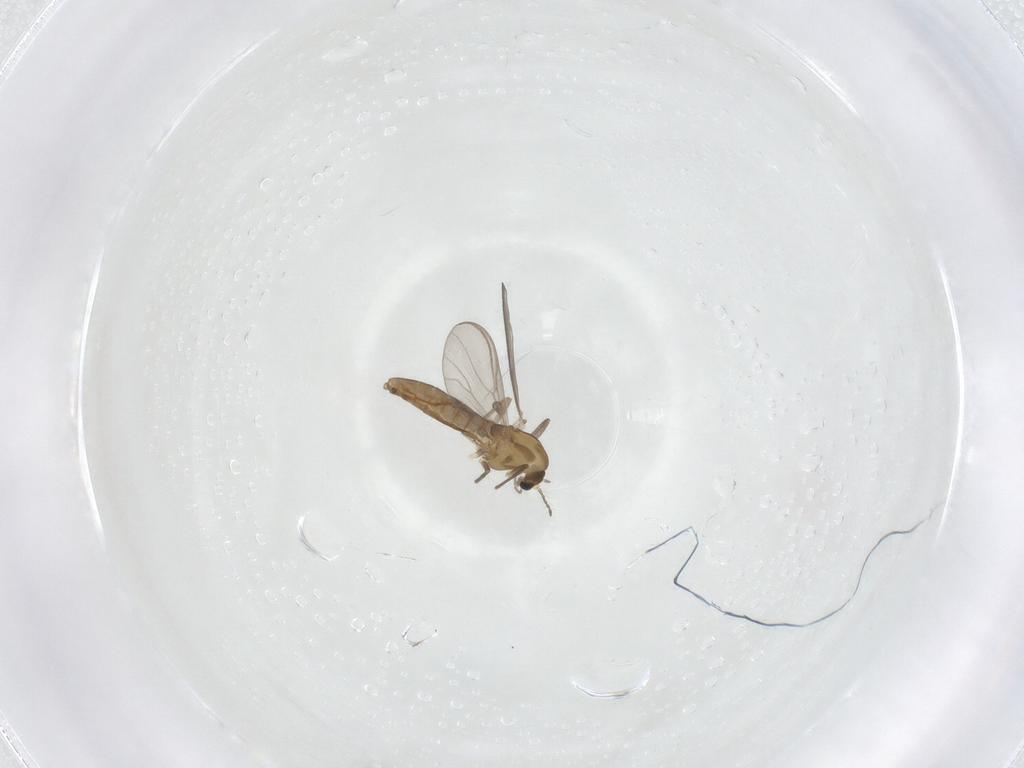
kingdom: Animalia
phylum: Arthropoda
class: Insecta
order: Diptera
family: Chironomidae
